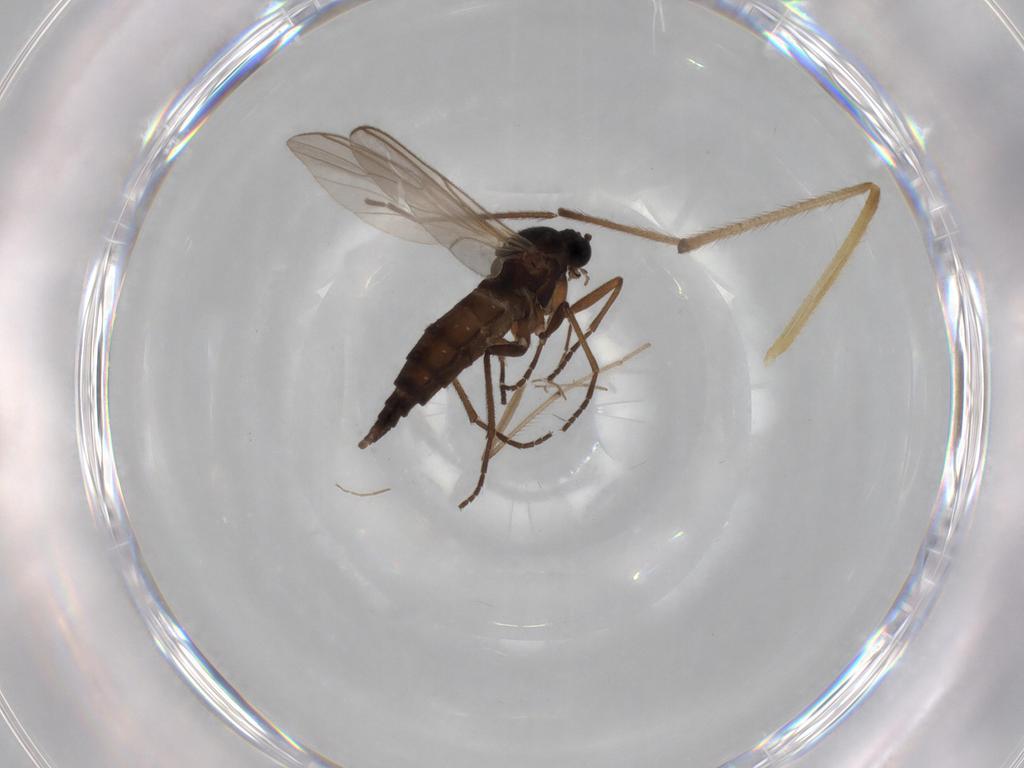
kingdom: Animalia
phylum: Arthropoda
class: Insecta
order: Diptera
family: Sciaridae
